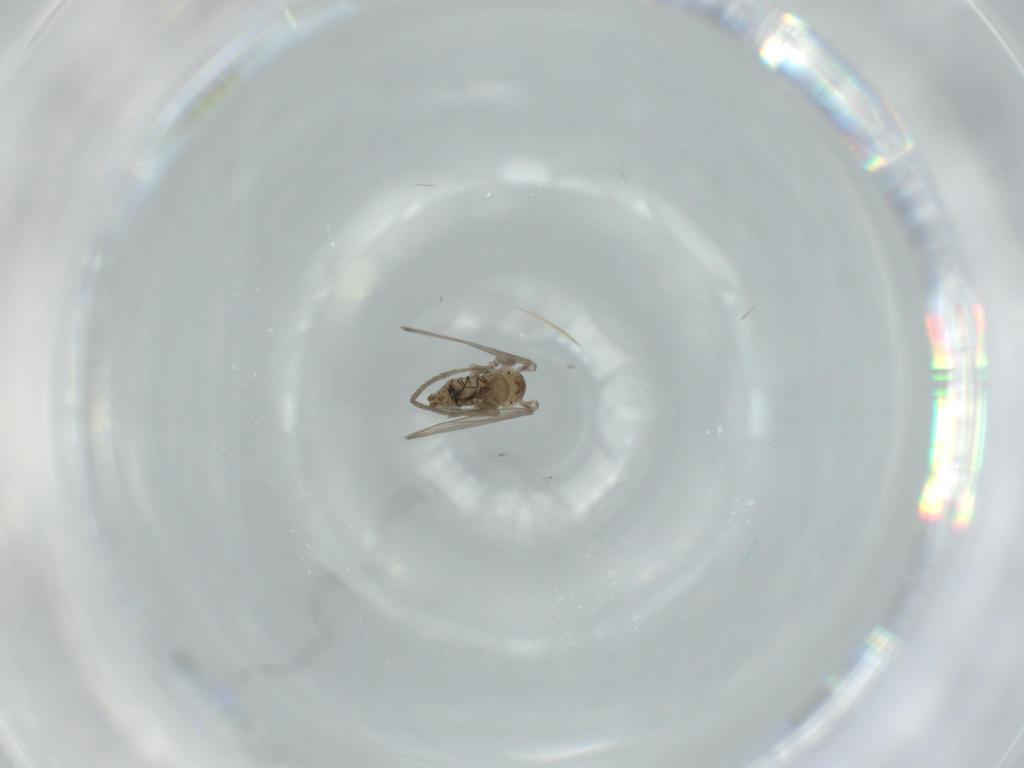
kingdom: Animalia
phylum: Arthropoda
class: Insecta
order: Diptera
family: Psychodidae
